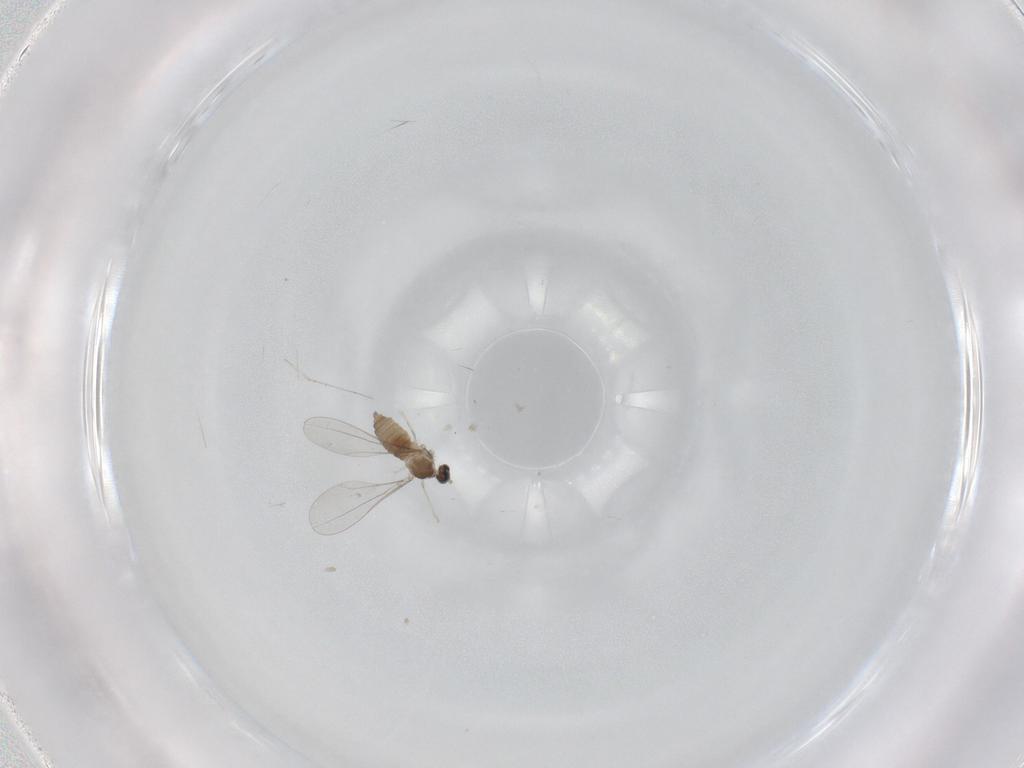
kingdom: Animalia
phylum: Arthropoda
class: Insecta
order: Diptera
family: Cecidomyiidae
